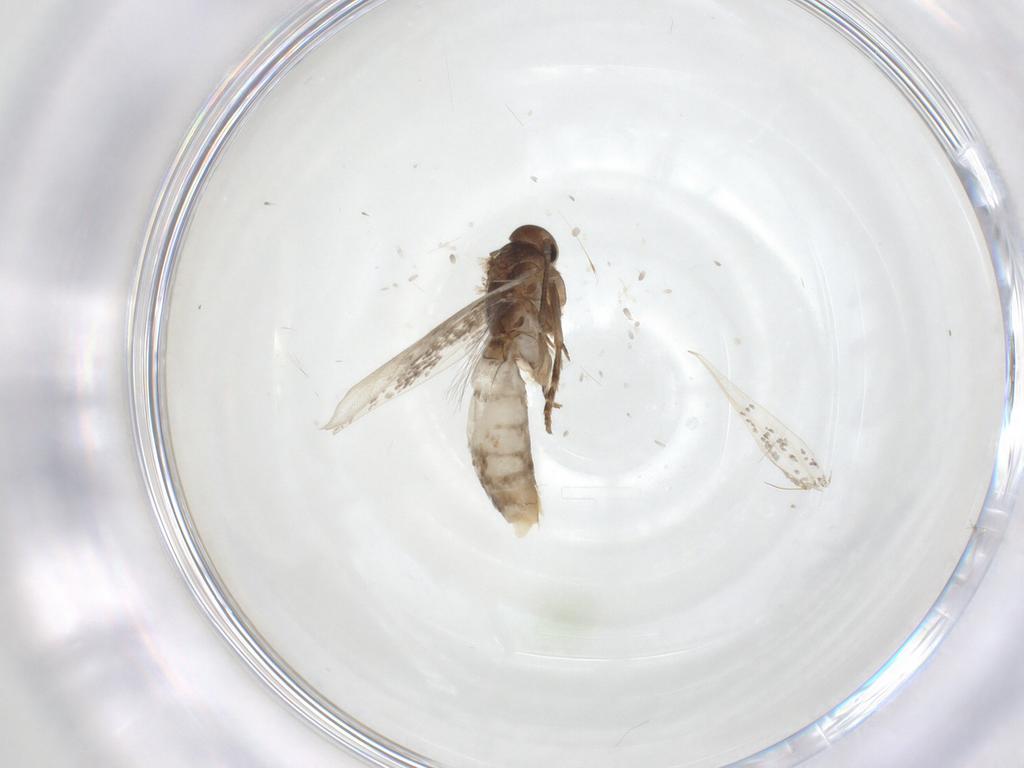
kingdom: Animalia
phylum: Arthropoda
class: Insecta
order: Lepidoptera
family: Elachistidae
